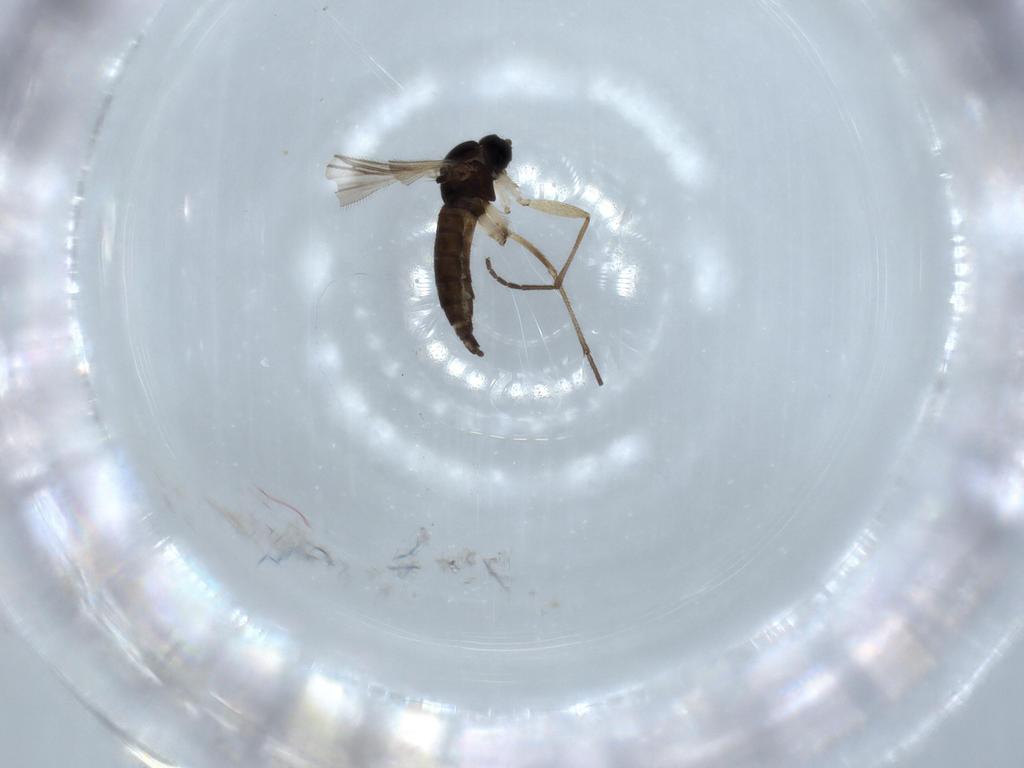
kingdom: Animalia
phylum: Arthropoda
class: Insecta
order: Diptera
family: Sciaridae
